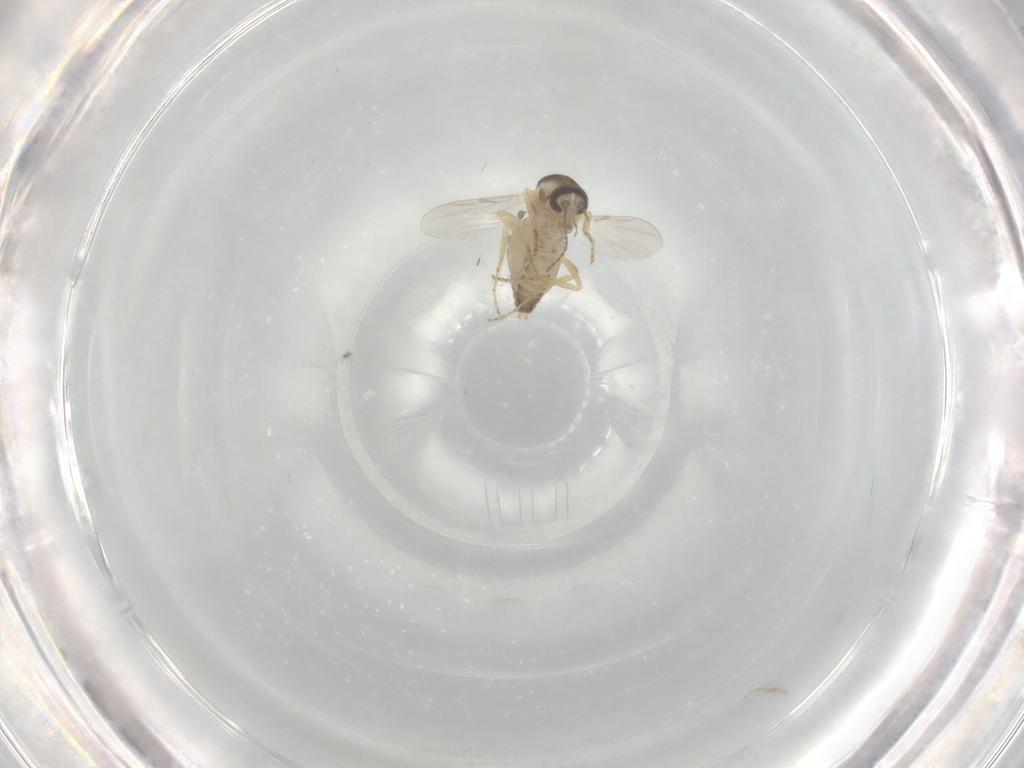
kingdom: Animalia
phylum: Arthropoda
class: Insecta
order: Diptera
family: Ceratopogonidae
